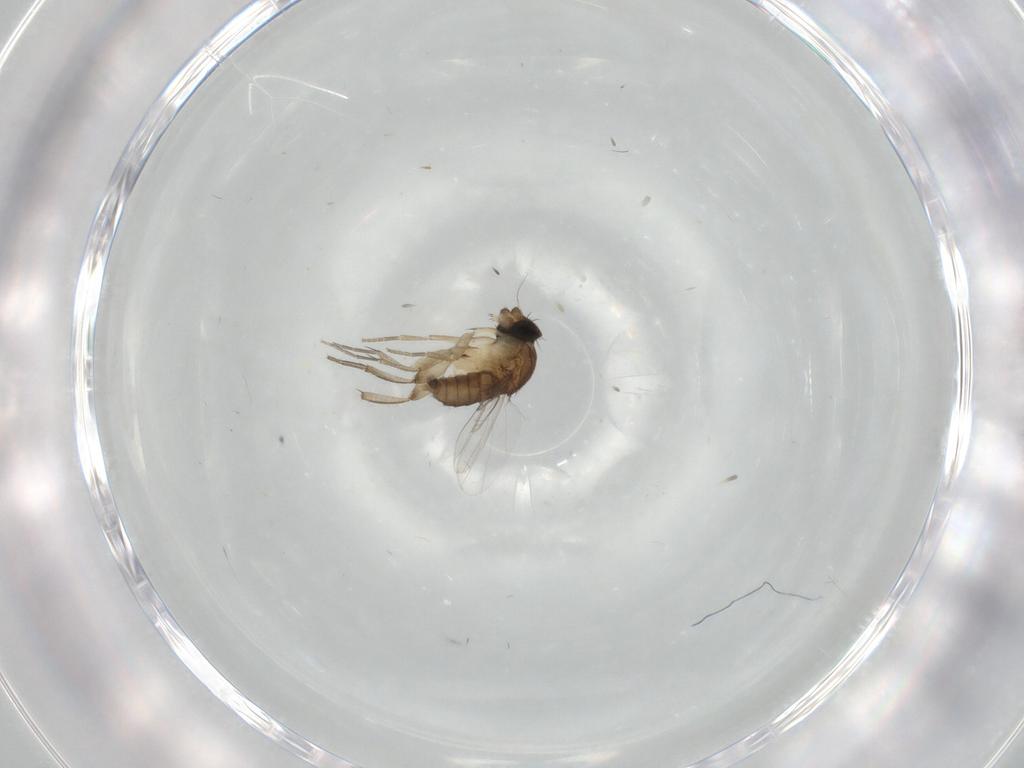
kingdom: Animalia
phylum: Arthropoda
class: Insecta
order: Diptera
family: Phoridae
